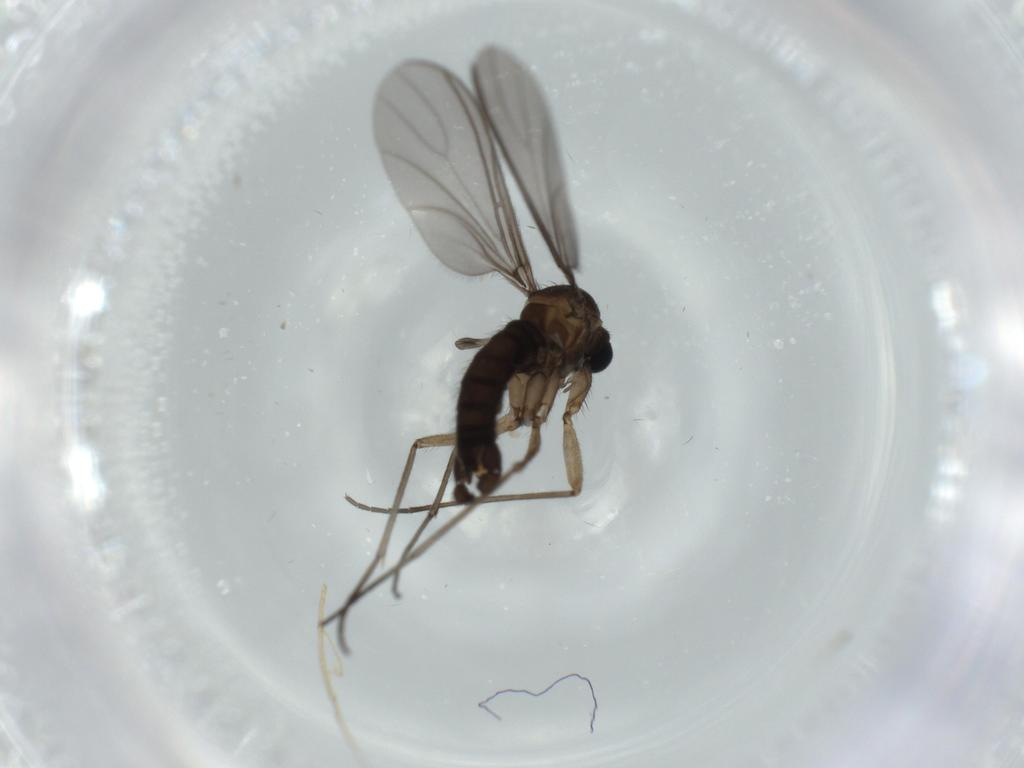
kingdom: Animalia
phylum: Arthropoda
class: Insecta
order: Diptera
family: Sciaridae
